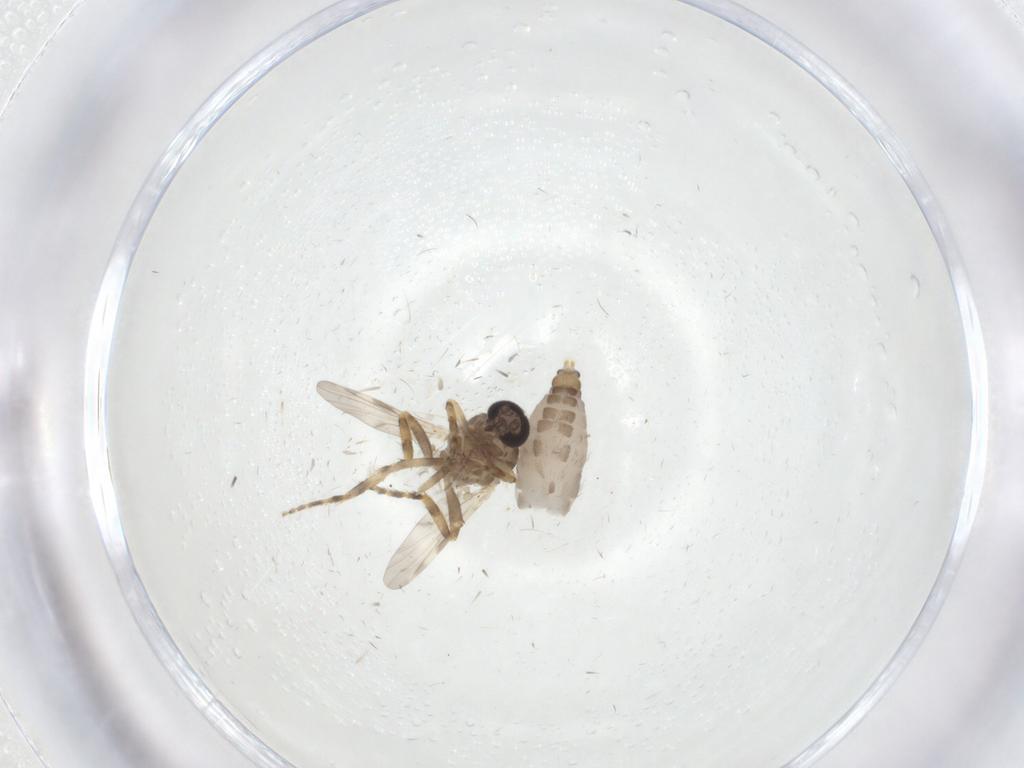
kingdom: Animalia
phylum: Arthropoda
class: Insecta
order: Diptera
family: Ceratopogonidae
